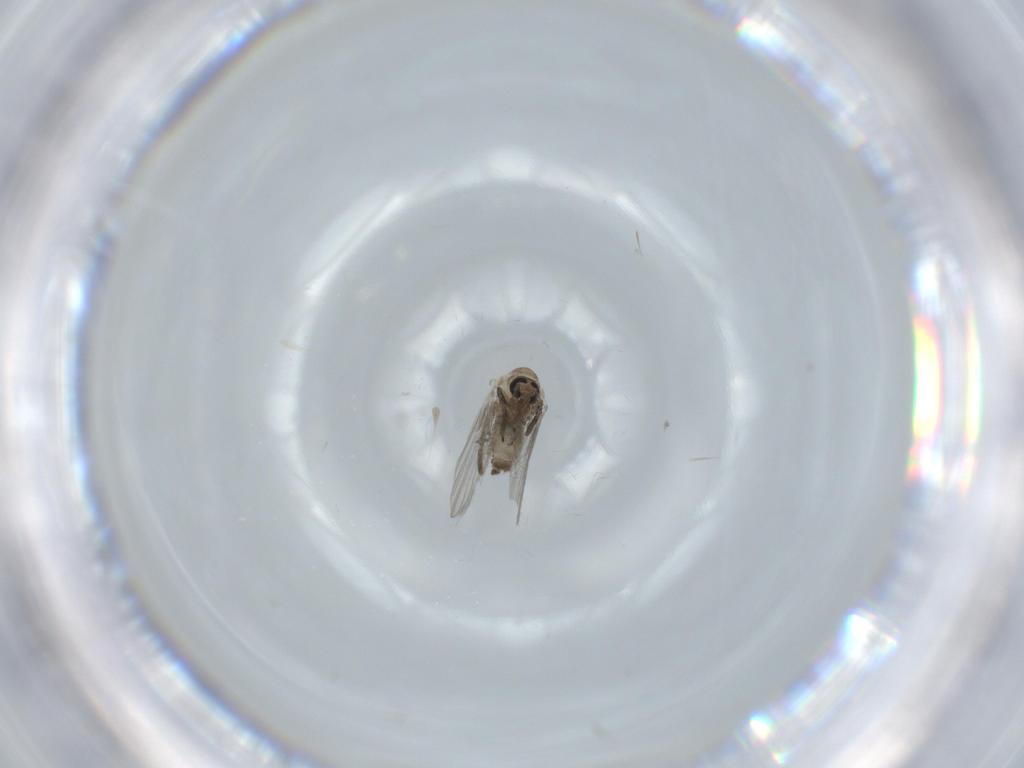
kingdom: Animalia
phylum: Arthropoda
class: Insecta
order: Diptera
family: Psychodidae
